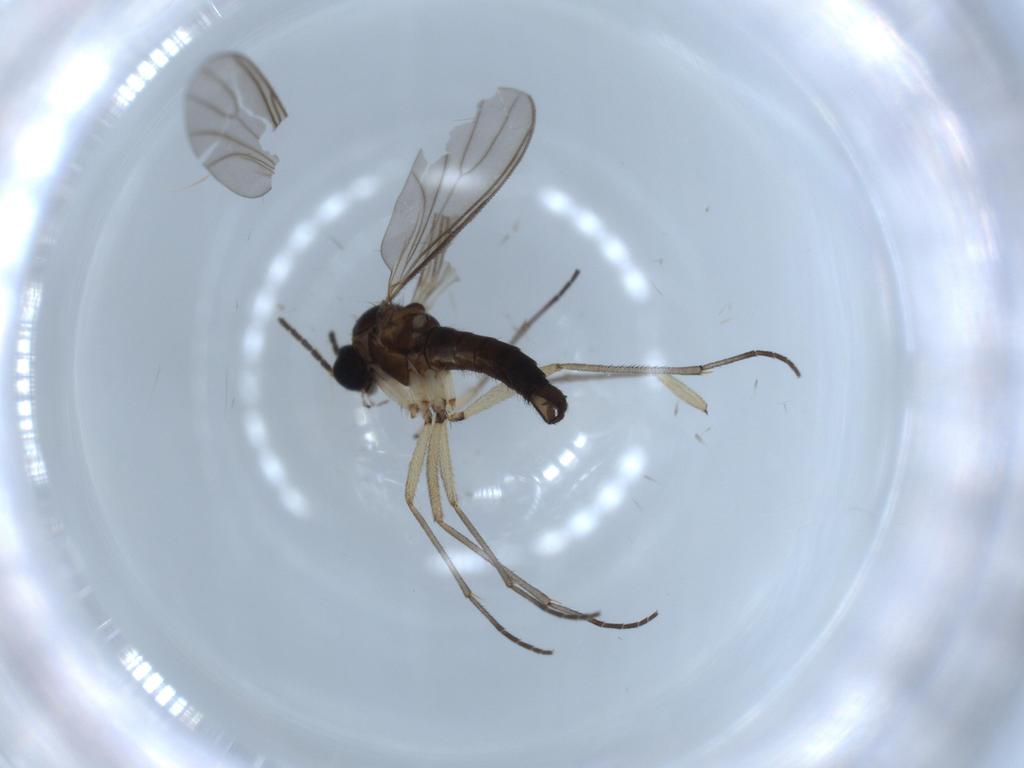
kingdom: Animalia
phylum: Arthropoda
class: Insecta
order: Diptera
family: Sciaridae
